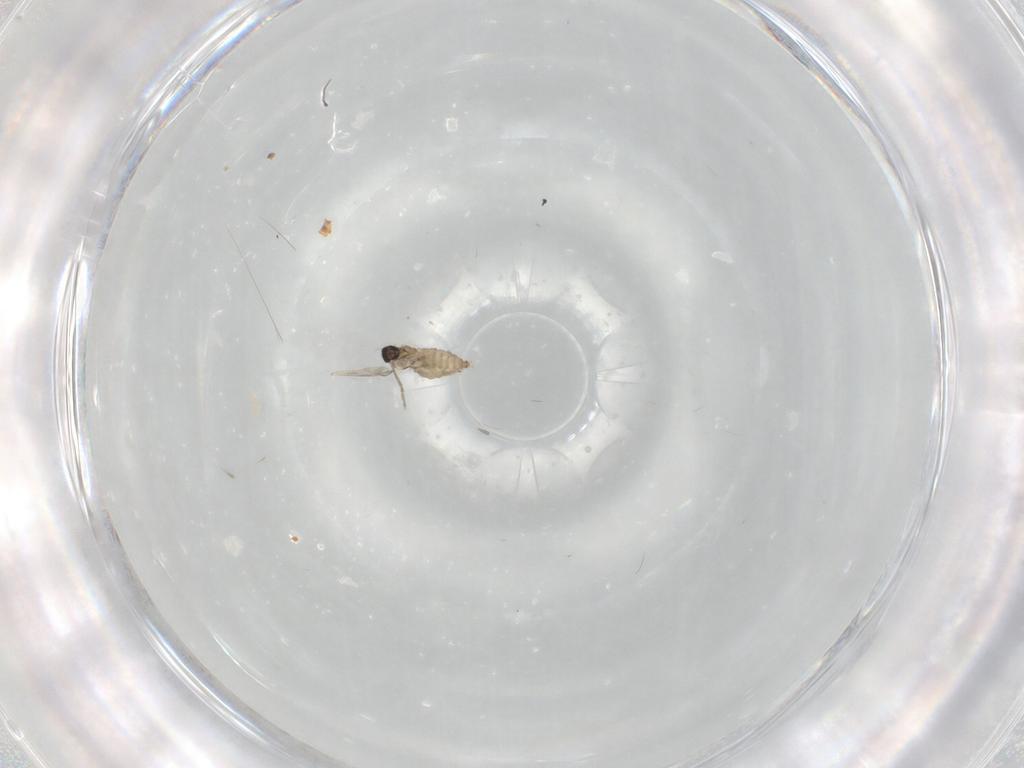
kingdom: Animalia
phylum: Arthropoda
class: Insecta
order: Diptera
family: Cecidomyiidae
